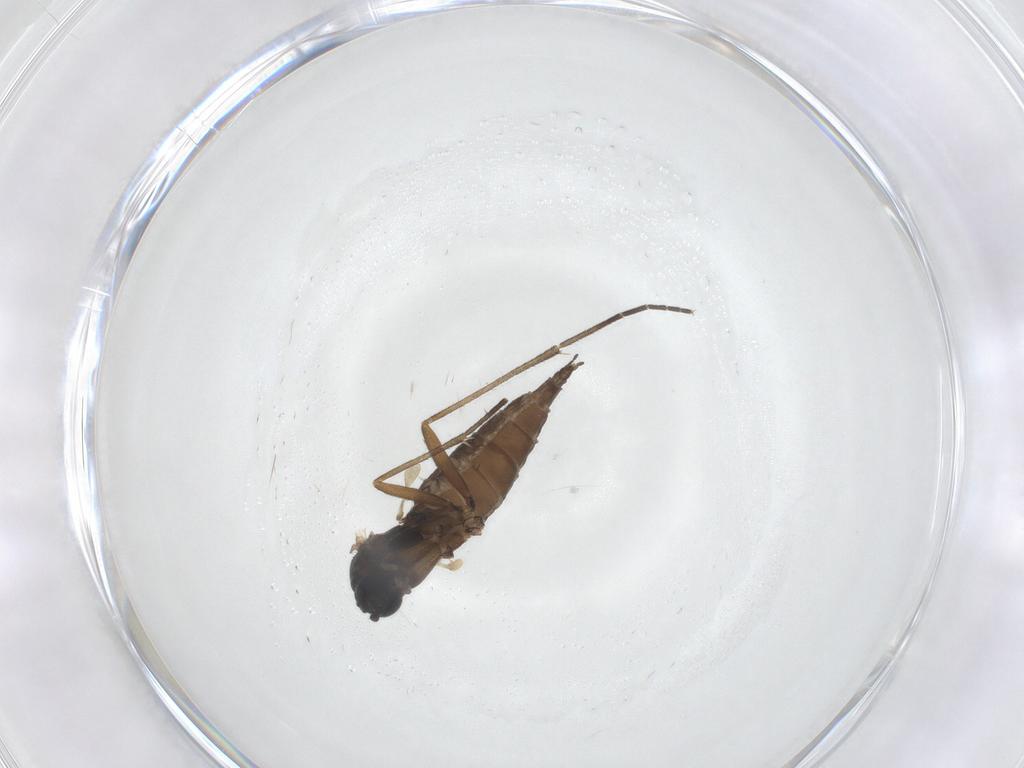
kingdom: Animalia
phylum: Arthropoda
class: Insecta
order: Diptera
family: Sciaridae
